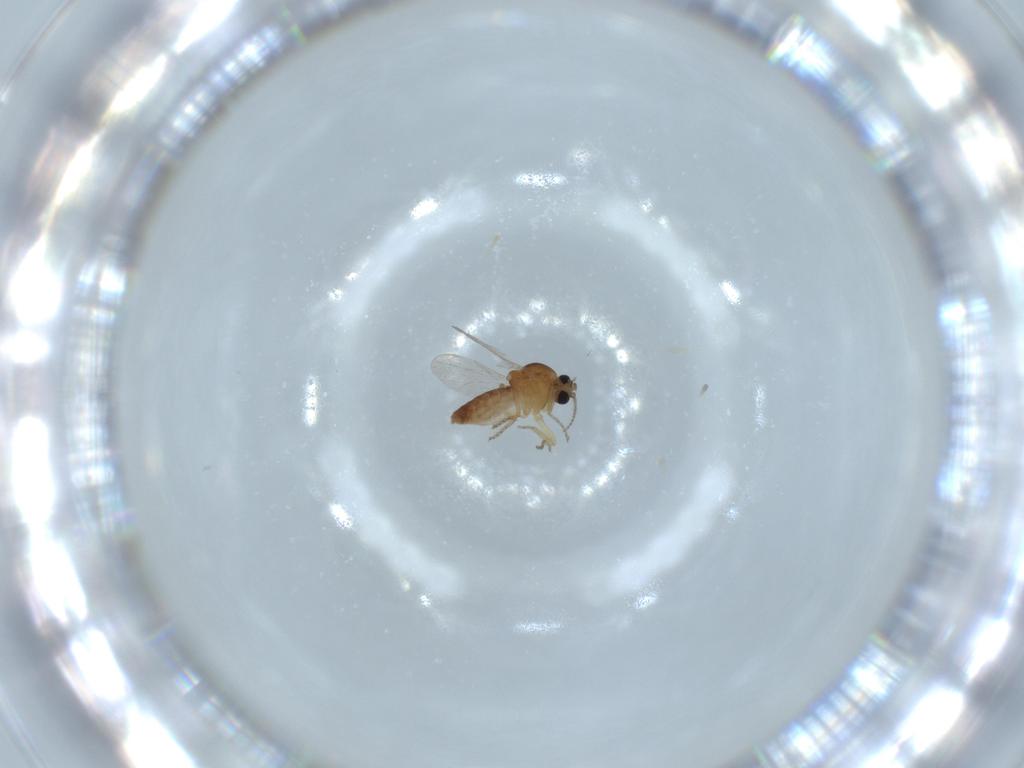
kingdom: Animalia
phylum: Arthropoda
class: Insecta
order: Diptera
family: Ceratopogonidae
